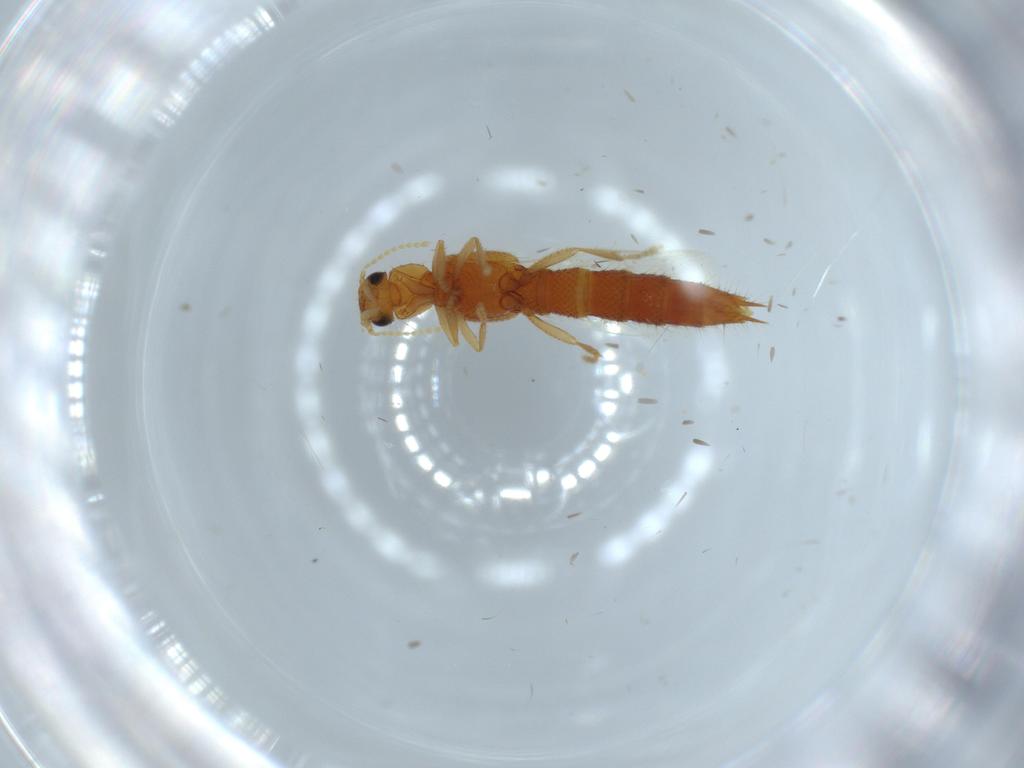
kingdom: Animalia
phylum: Arthropoda
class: Insecta
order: Coleoptera
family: Staphylinidae
